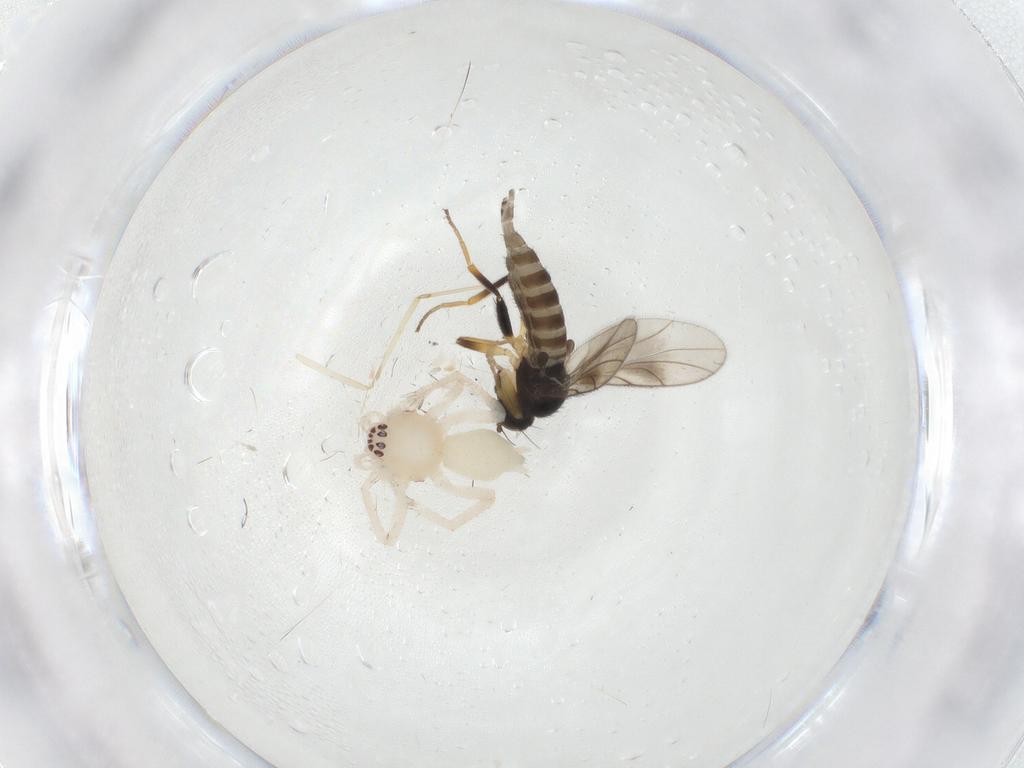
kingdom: Animalia
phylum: Arthropoda
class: Insecta
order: Diptera
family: Hybotidae
